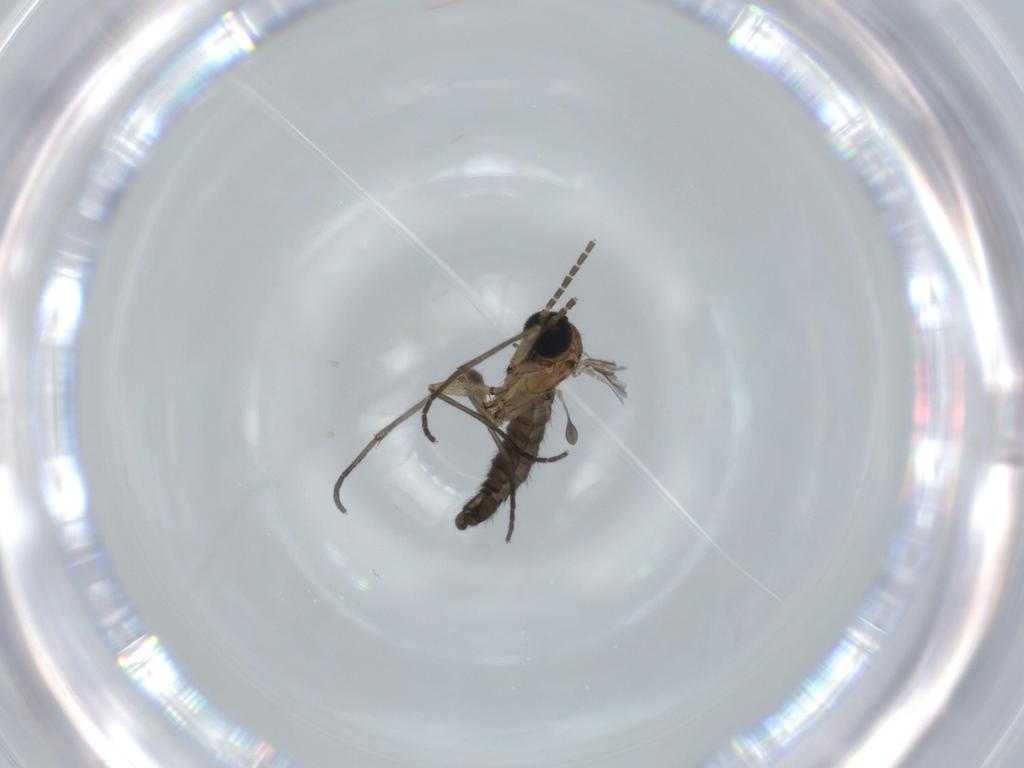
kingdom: Animalia
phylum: Arthropoda
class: Insecta
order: Diptera
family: Sciaridae
